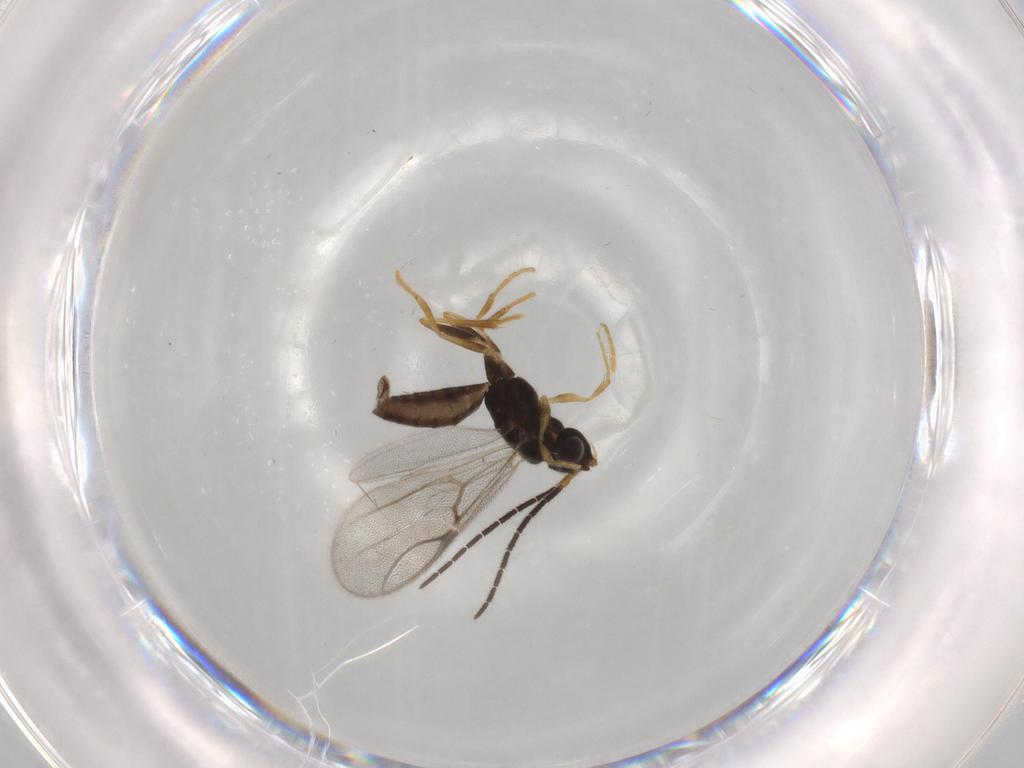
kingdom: Animalia
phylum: Arthropoda
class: Insecta
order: Hymenoptera
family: Dryinidae
